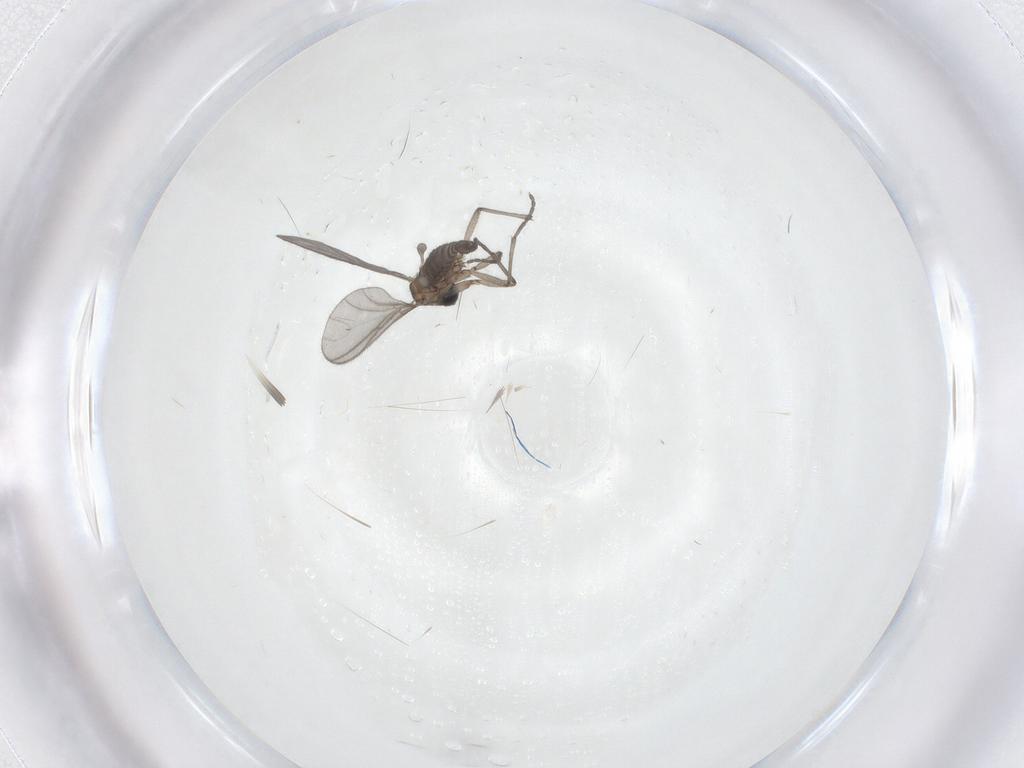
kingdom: Animalia
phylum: Arthropoda
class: Insecta
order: Diptera
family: Sciaridae
